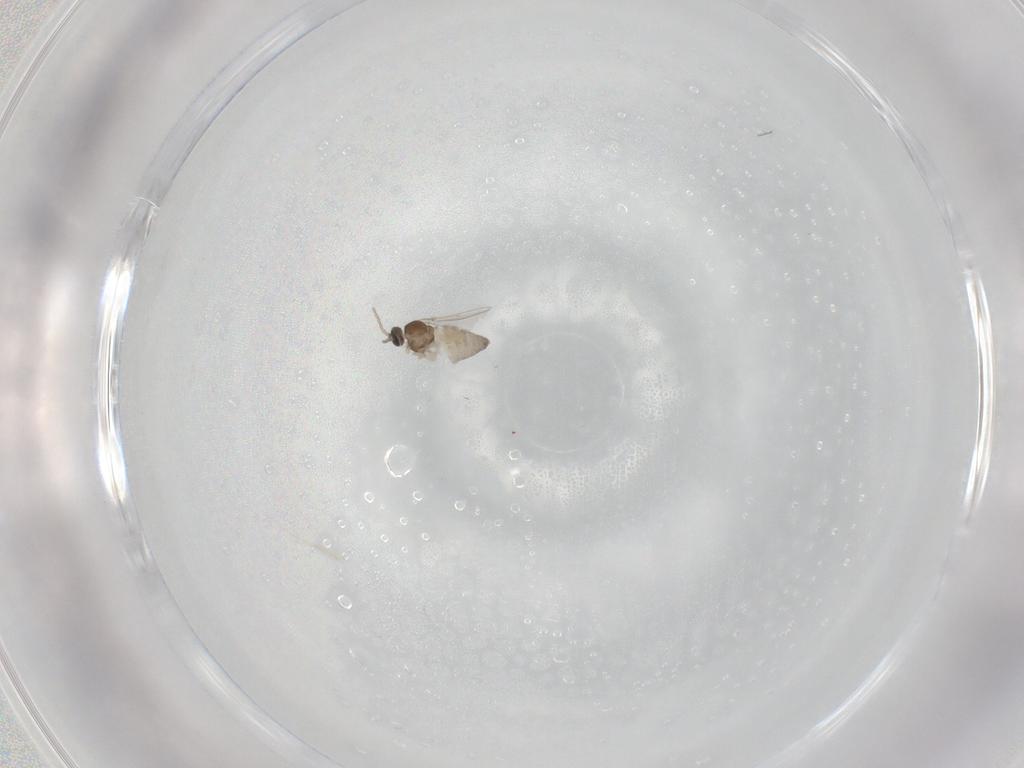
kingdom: Animalia
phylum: Arthropoda
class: Insecta
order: Diptera
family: Cecidomyiidae
